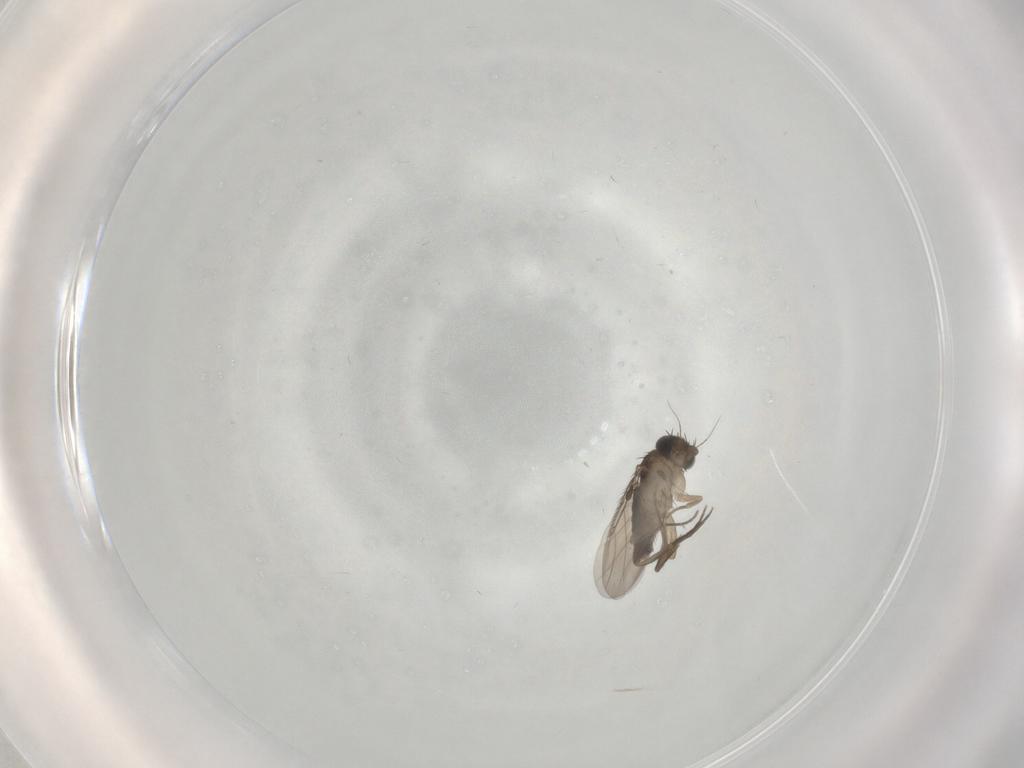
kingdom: Animalia
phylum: Arthropoda
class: Insecta
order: Diptera
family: Phoridae
